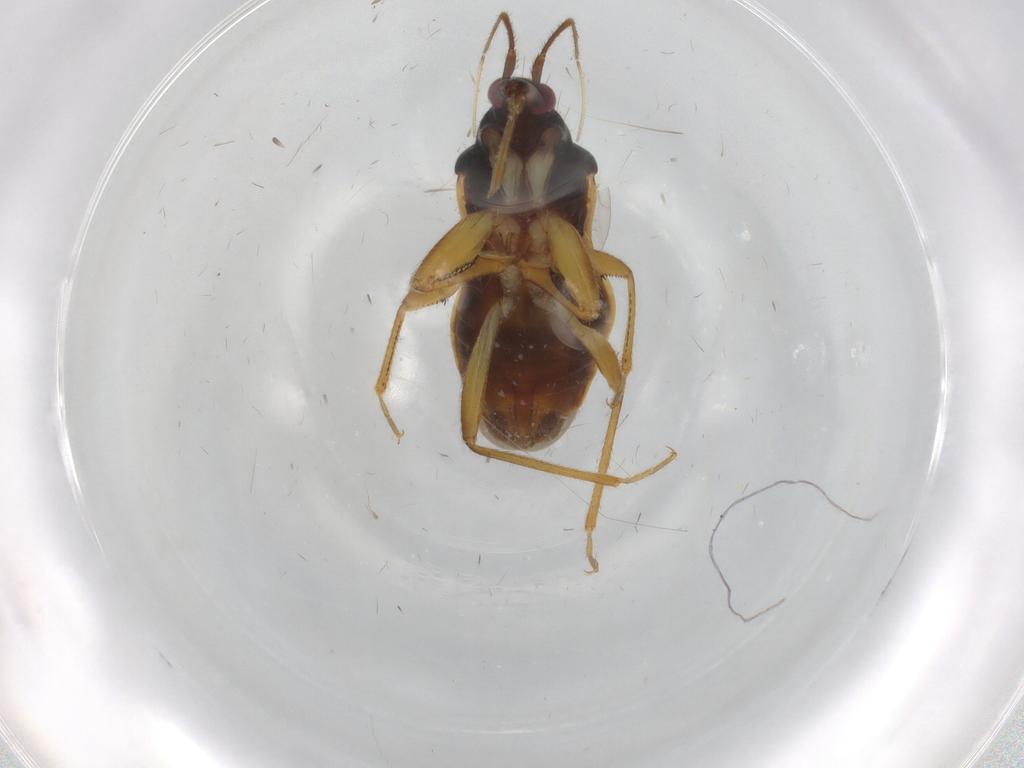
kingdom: Animalia
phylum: Arthropoda
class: Insecta
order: Hemiptera
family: Nabidae
